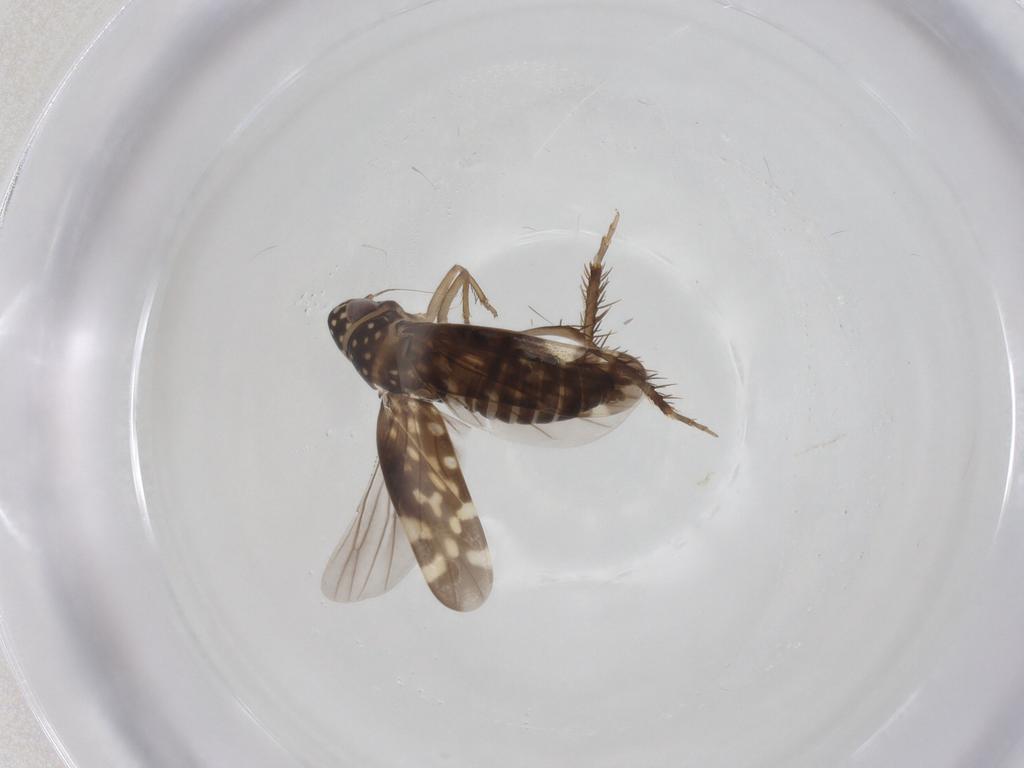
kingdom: Animalia
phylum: Arthropoda
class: Insecta
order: Hemiptera
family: Cicadellidae
